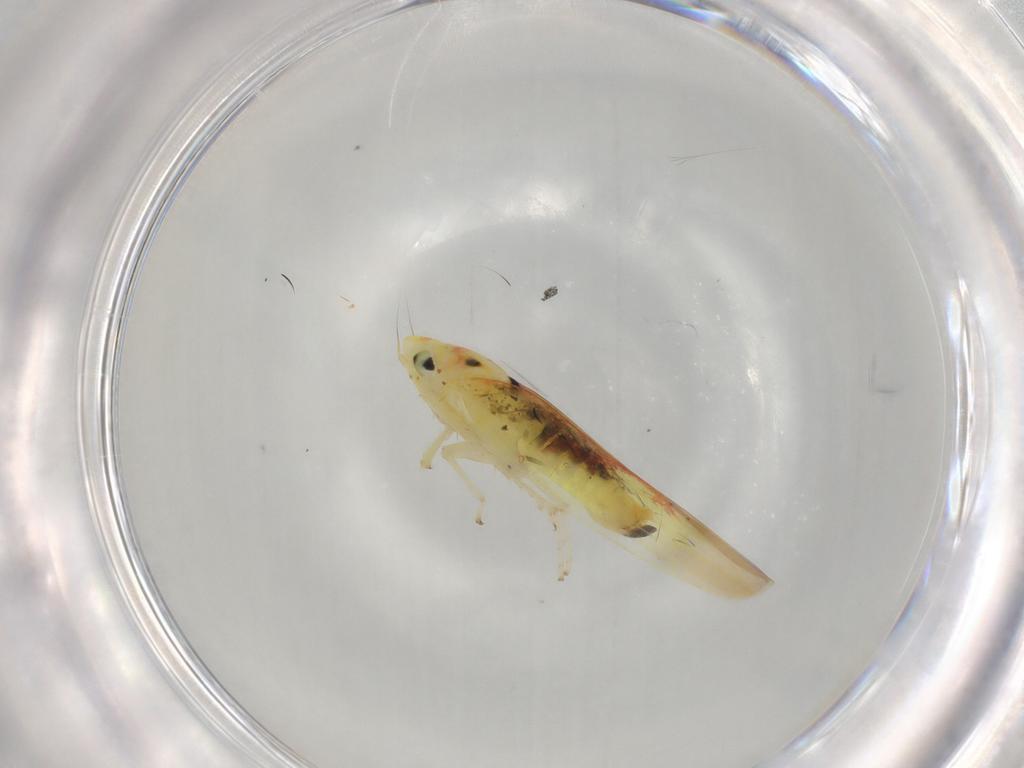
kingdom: Animalia
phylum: Arthropoda
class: Insecta
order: Hemiptera
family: Cicadellidae
